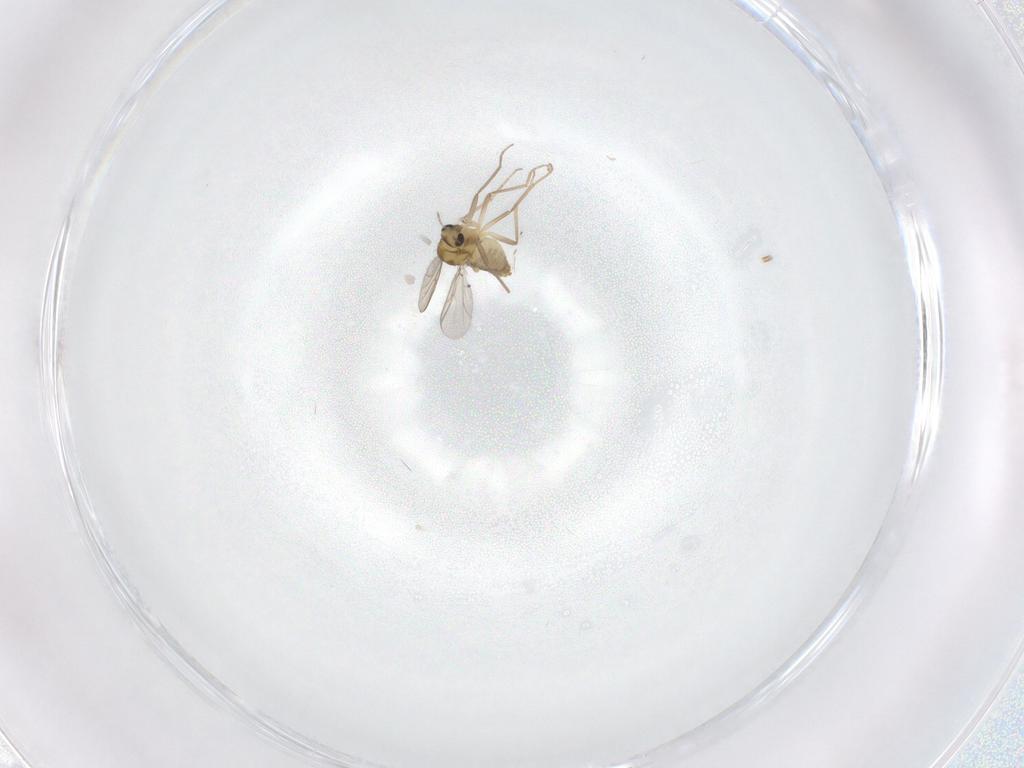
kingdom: Animalia
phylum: Arthropoda
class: Insecta
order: Diptera
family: Chironomidae
